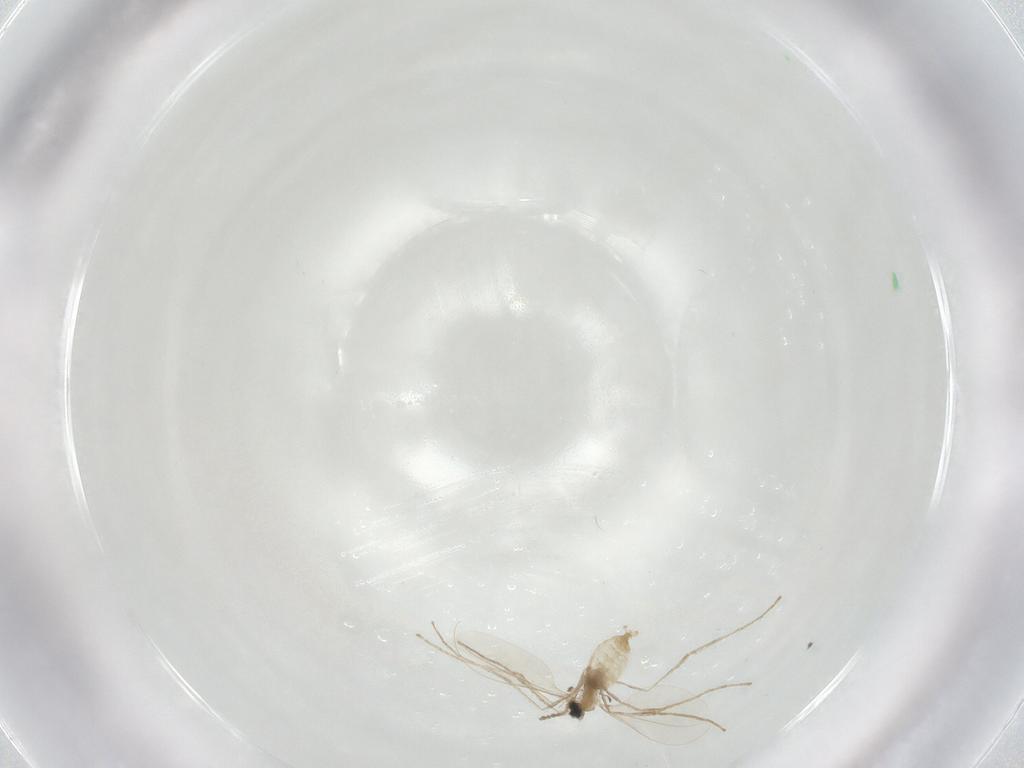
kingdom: Animalia
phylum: Arthropoda
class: Insecta
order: Diptera
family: Cecidomyiidae
